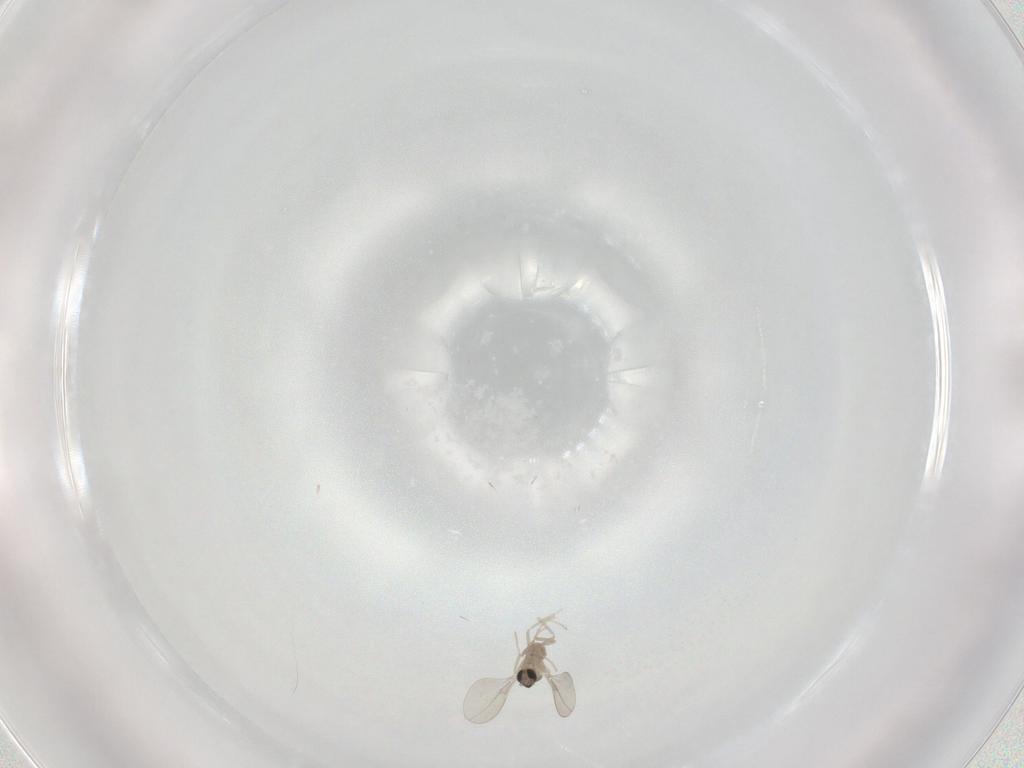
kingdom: Animalia
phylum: Arthropoda
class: Insecta
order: Diptera
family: Cecidomyiidae
